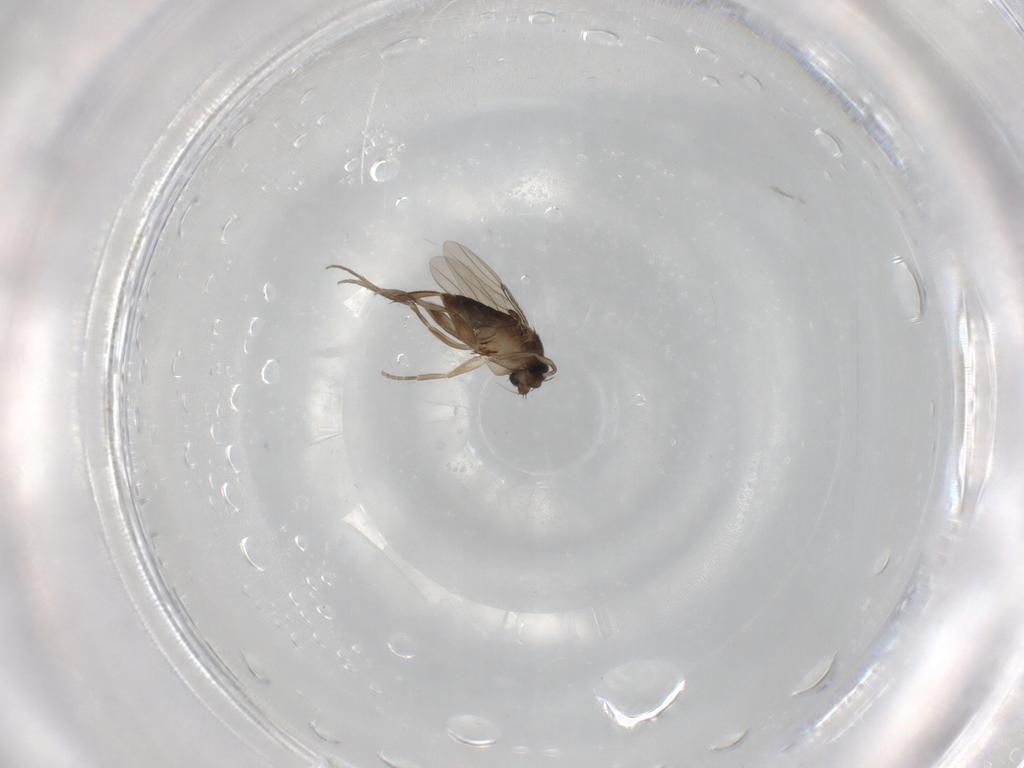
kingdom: Animalia
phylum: Arthropoda
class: Insecta
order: Diptera
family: Phoridae
